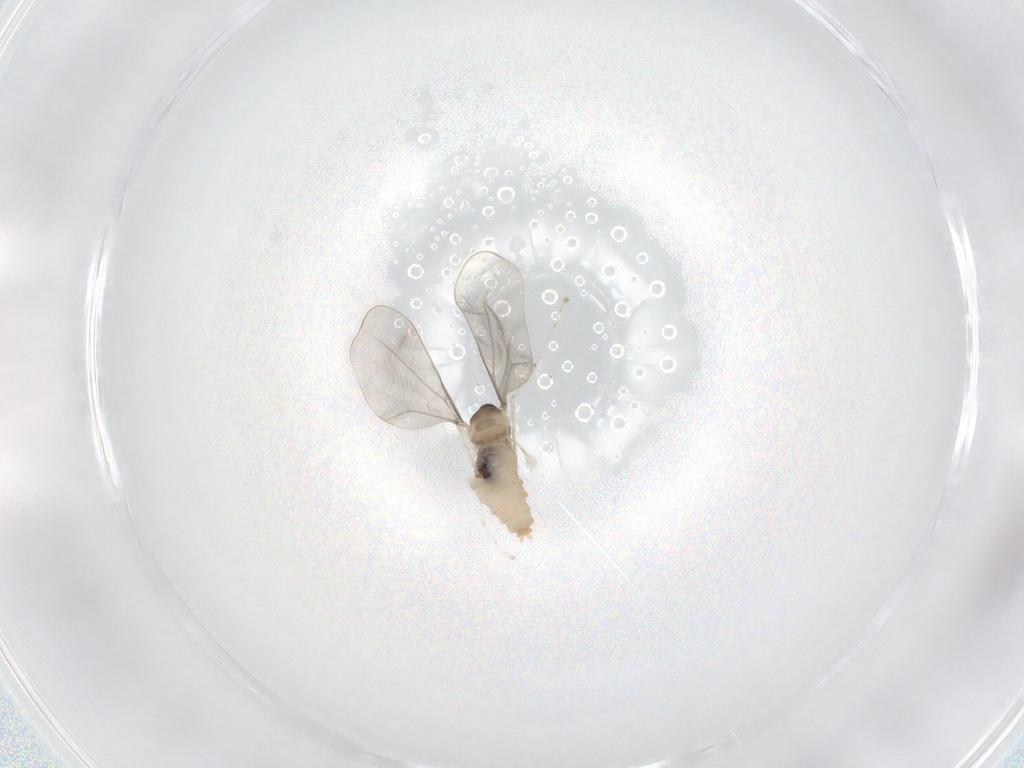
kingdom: Animalia
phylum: Arthropoda
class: Insecta
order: Diptera
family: Cecidomyiidae
